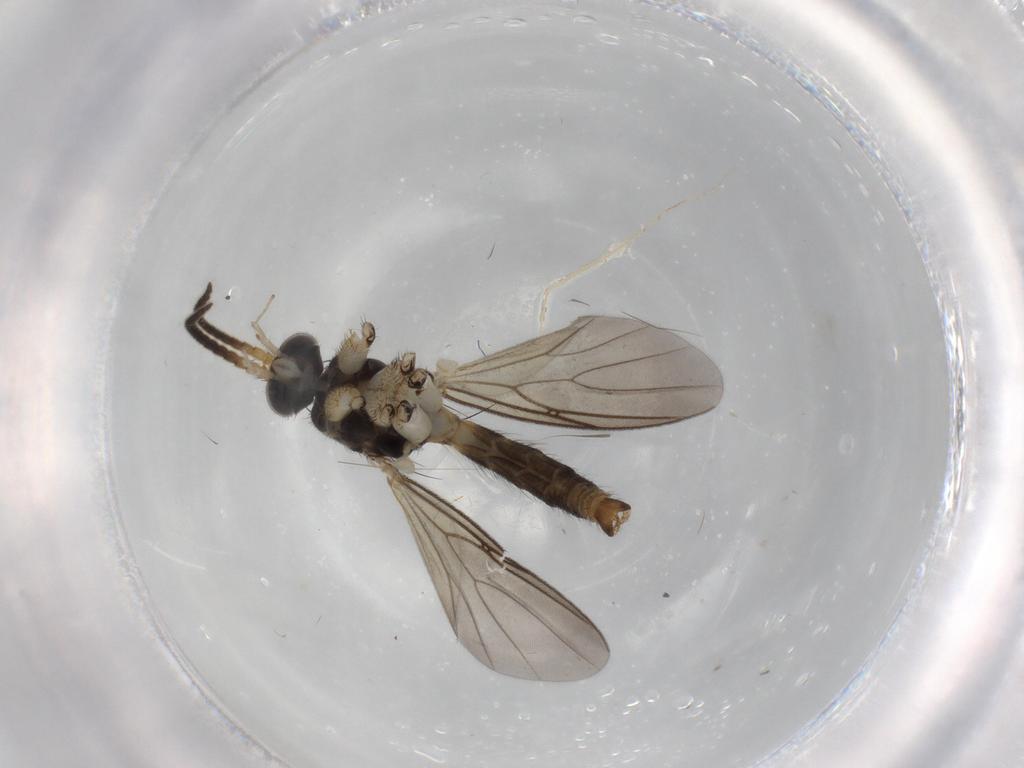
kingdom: Animalia
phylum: Arthropoda
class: Insecta
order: Diptera
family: Phoridae
